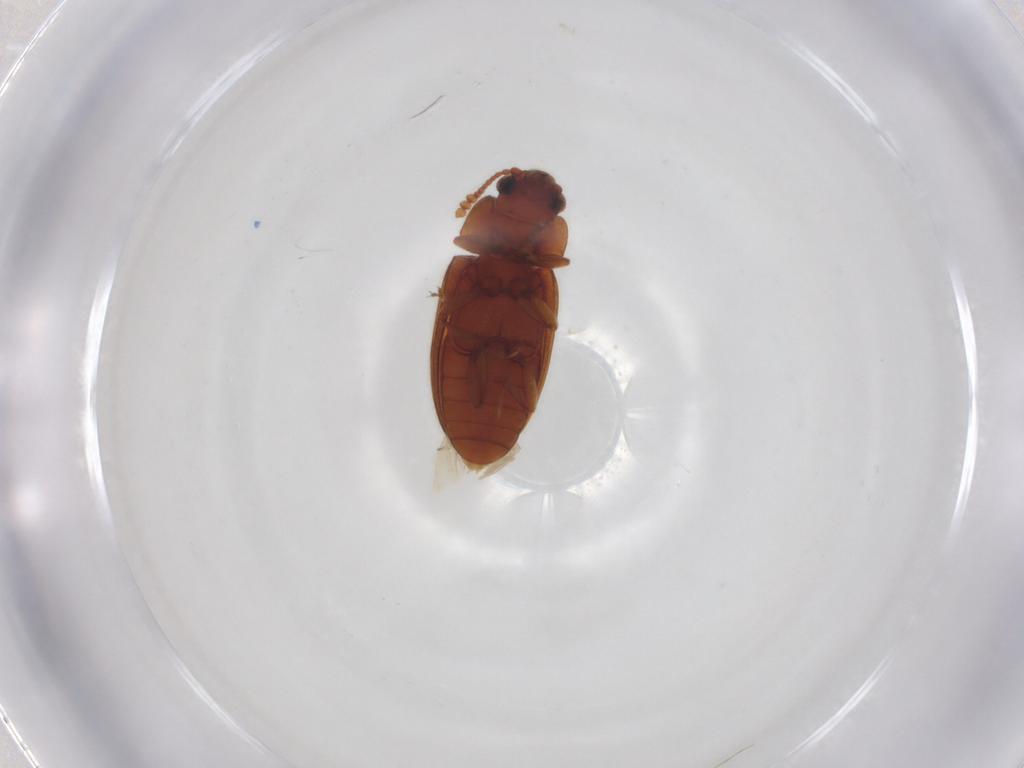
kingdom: Animalia
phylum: Arthropoda
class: Insecta
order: Coleoptera
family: Erotylidae
